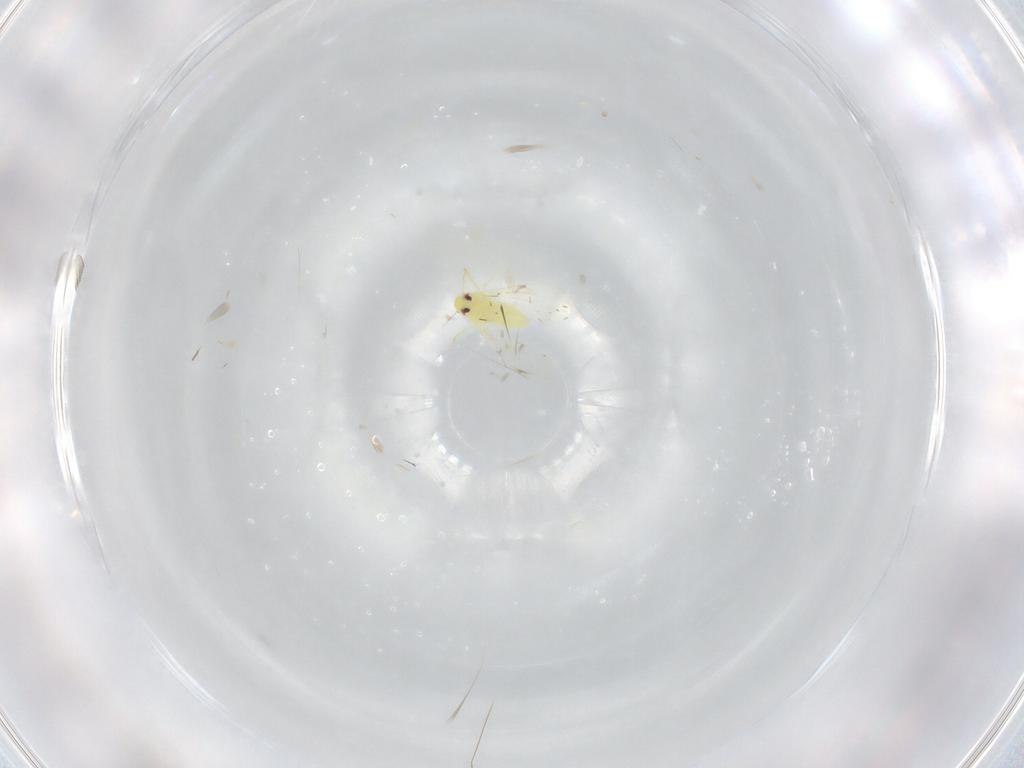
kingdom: Animalia
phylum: Arthropoda
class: Insecta
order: Hemiptera
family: Aleyrodidae
